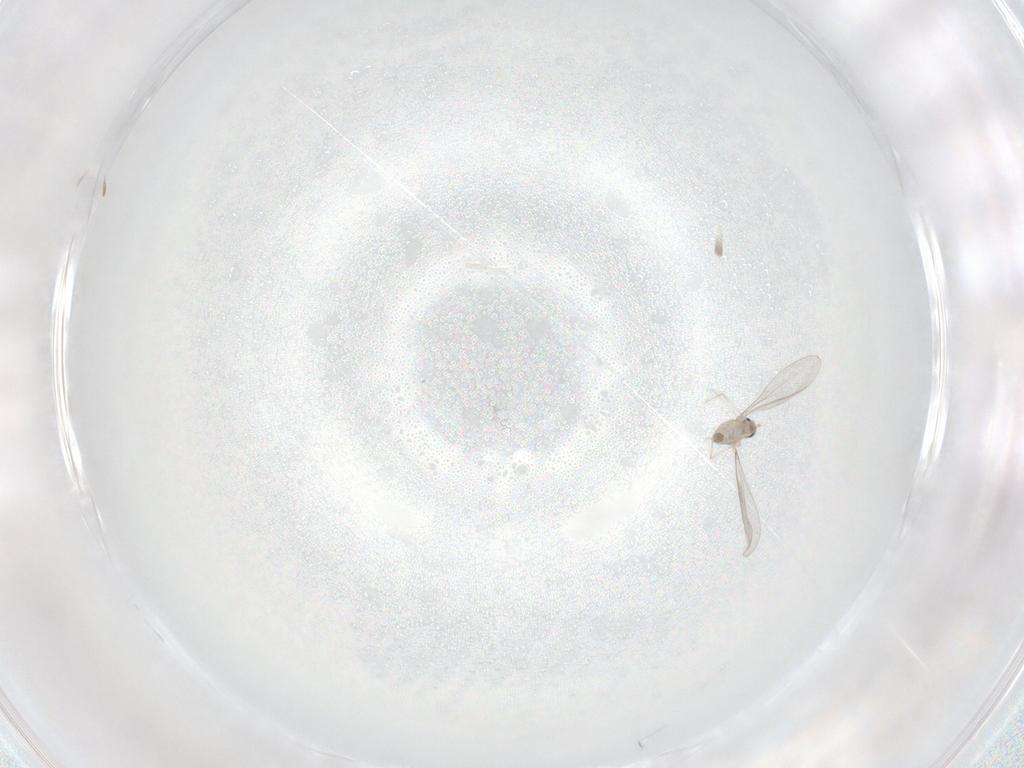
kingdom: Animalia
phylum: Arthropoda
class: Insecta
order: Diptera
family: Cecidomyiidae
